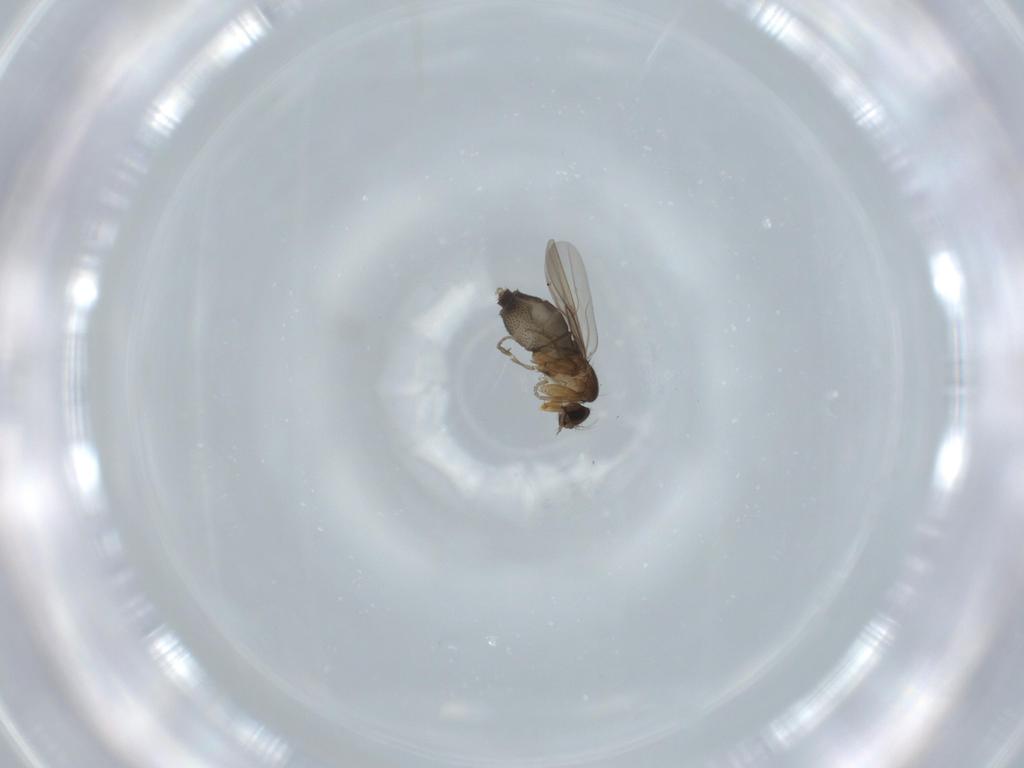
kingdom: Animalia
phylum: Arthropoda
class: Insecta
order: Diptera
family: Phoridae
